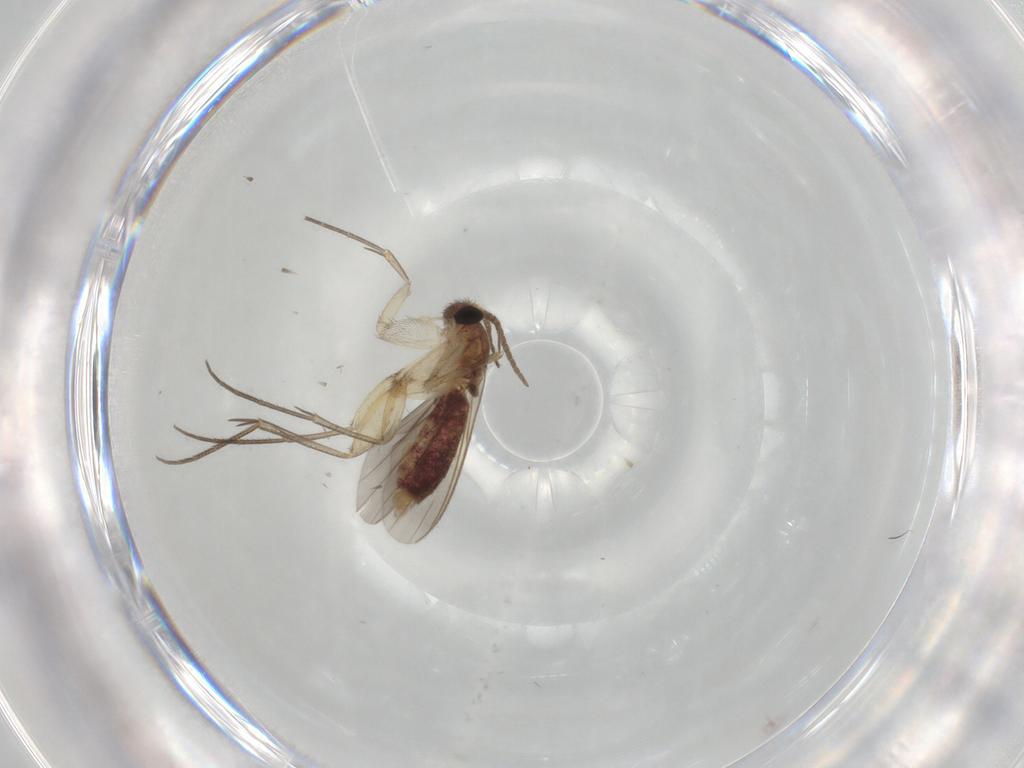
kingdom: Animalia
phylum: Arthropoda
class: Insecta
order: Diptera
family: Mycetophilidae
